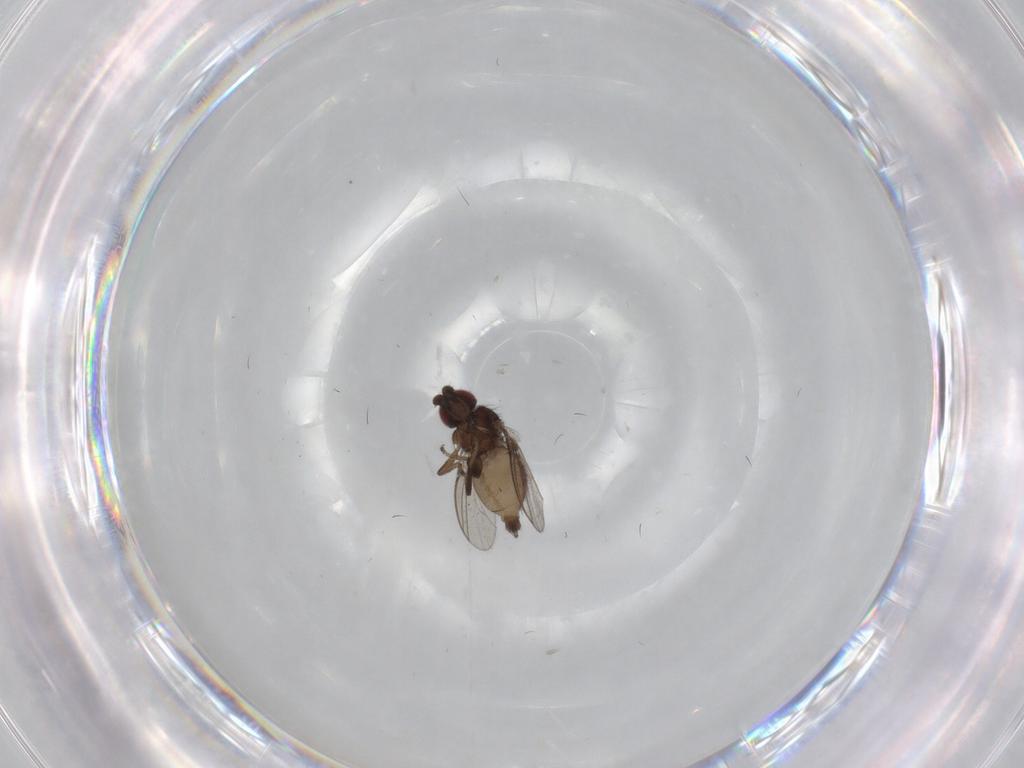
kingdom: Animalia
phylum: Arthropoda
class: Insecta
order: Diptera
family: Milichiidae
